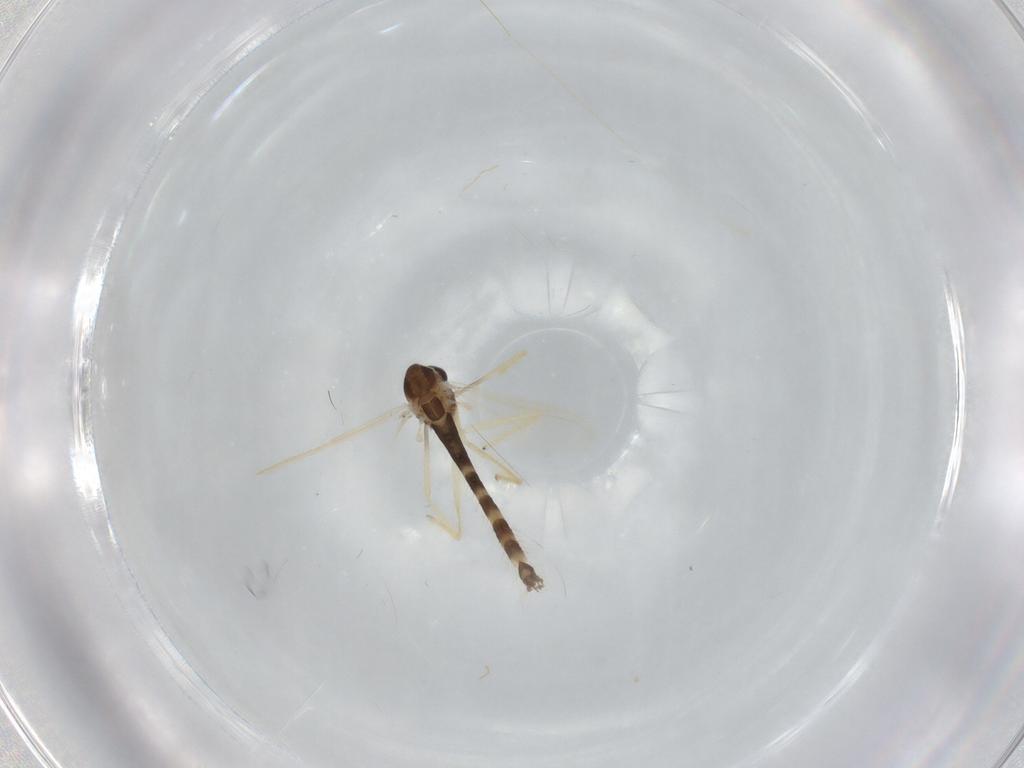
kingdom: Animalia
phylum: Arthropoda
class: Insecta
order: Diptera
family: Chironomidae
